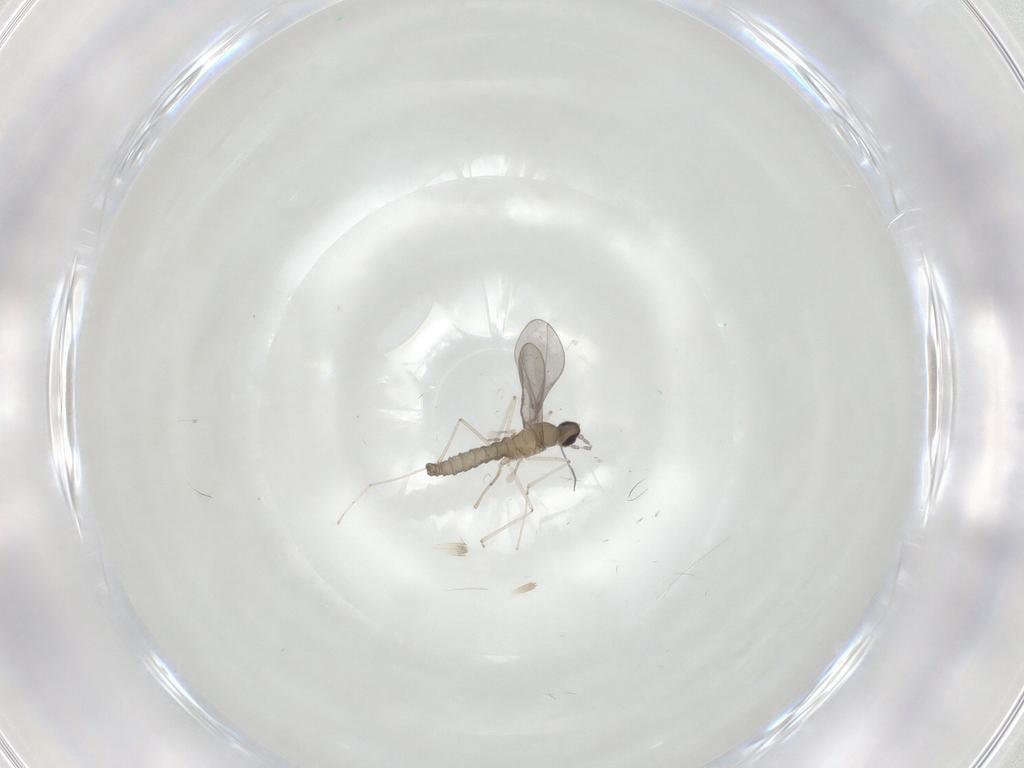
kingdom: Animalia
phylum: Arthropoda
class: Insecta
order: Diptera
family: Cecidomyiidae
